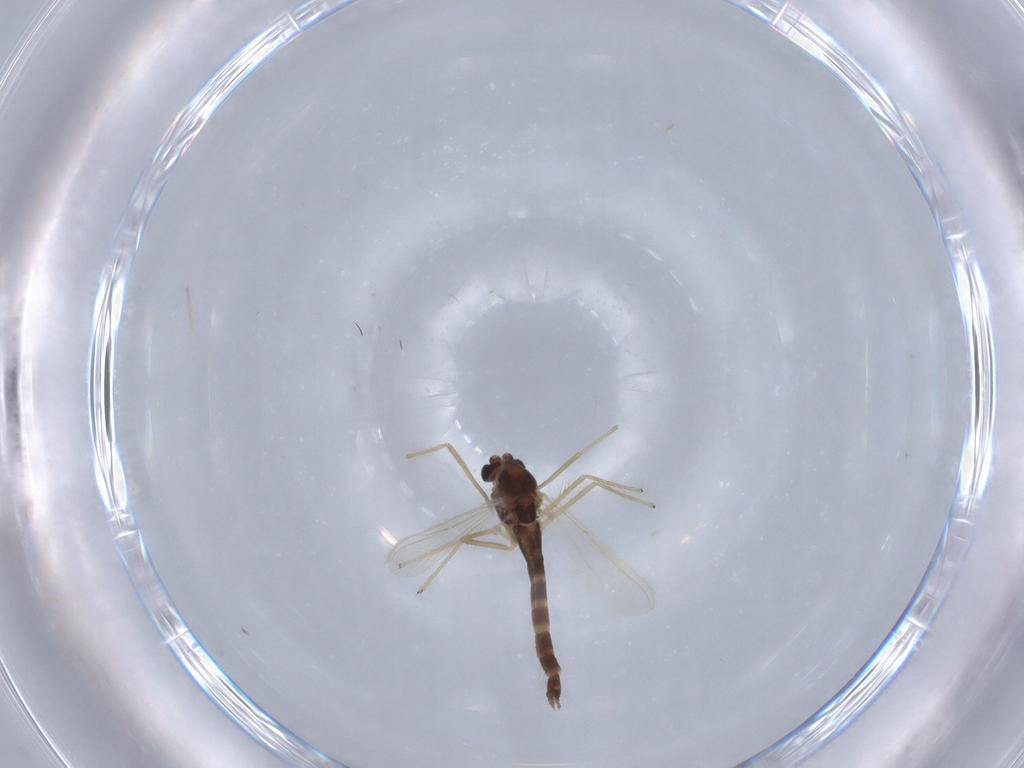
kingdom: Animalia
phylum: Arthropoda
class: Insecta
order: Diptera
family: Chironomidae
